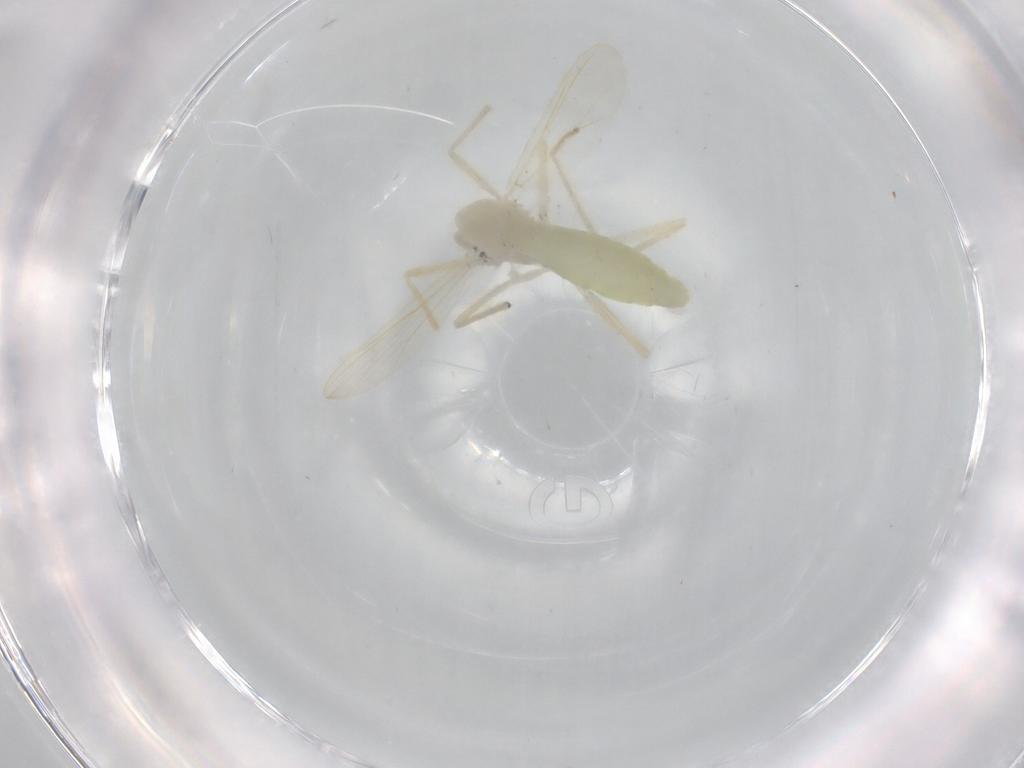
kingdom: Animalia
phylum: Arthropoda
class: Insecta
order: Diptera
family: Chironomidae
